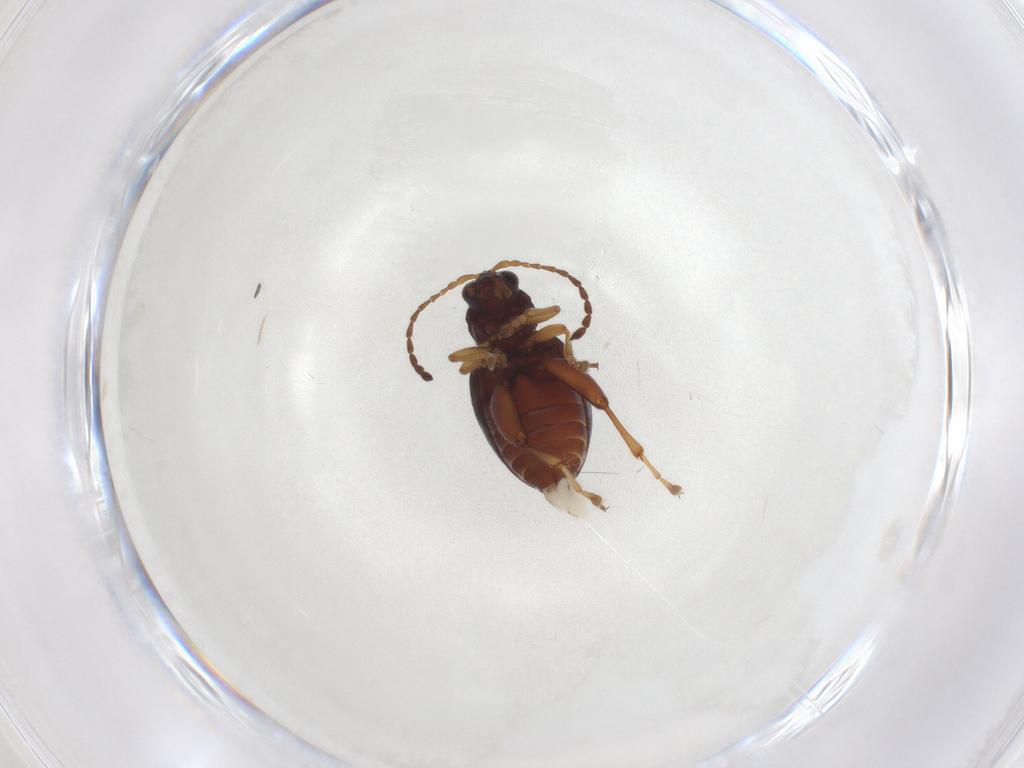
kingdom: Animalia
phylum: Arthropoda
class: Insecta
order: Coleoptera
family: Chrysomelidae
